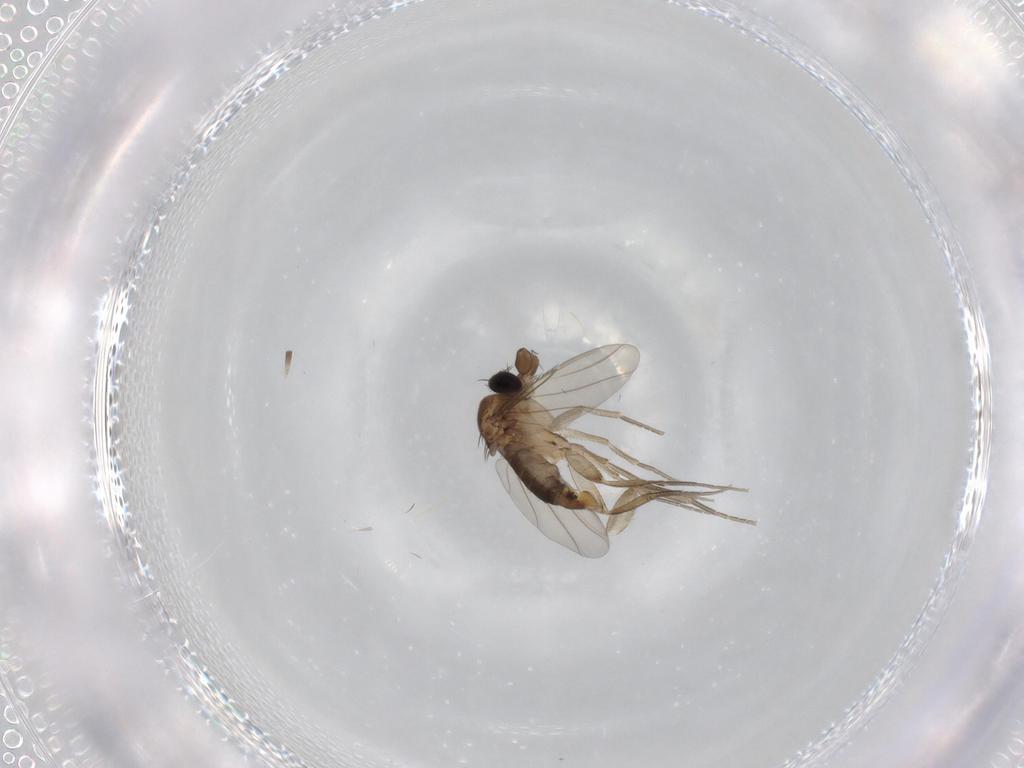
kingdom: Animalia
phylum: Arthropoda
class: Insecta
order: Diptera
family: Phoridae
